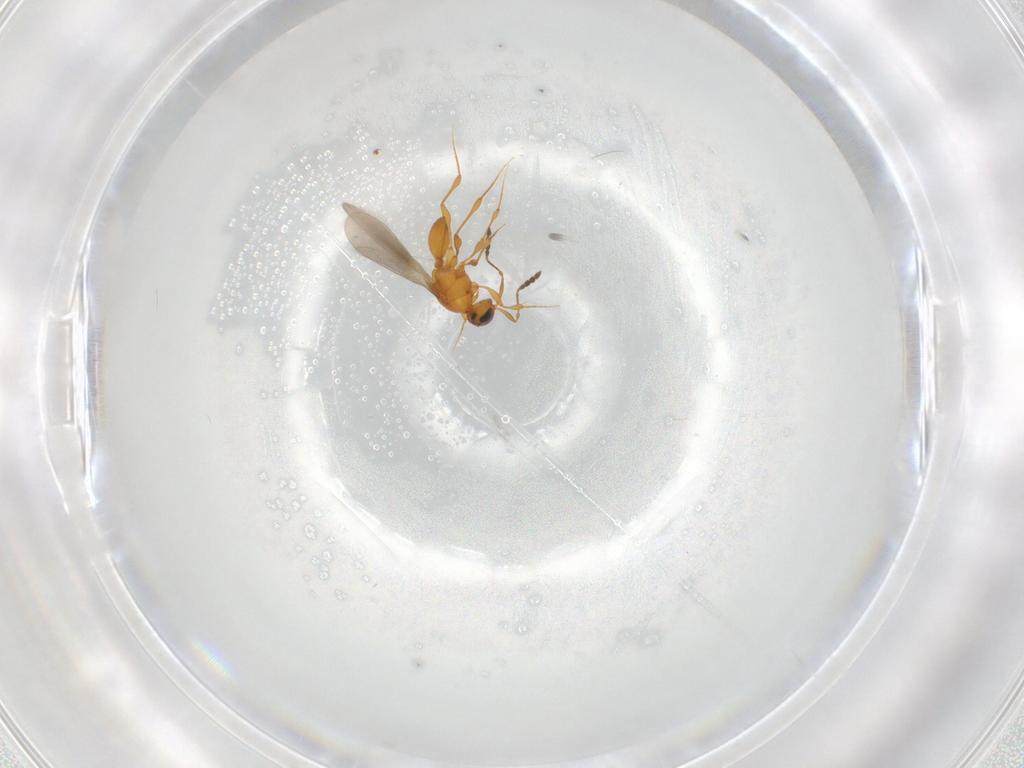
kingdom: Animalia
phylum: Arthropoda
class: Insecta
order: Hymenoptera
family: Platygastridae
